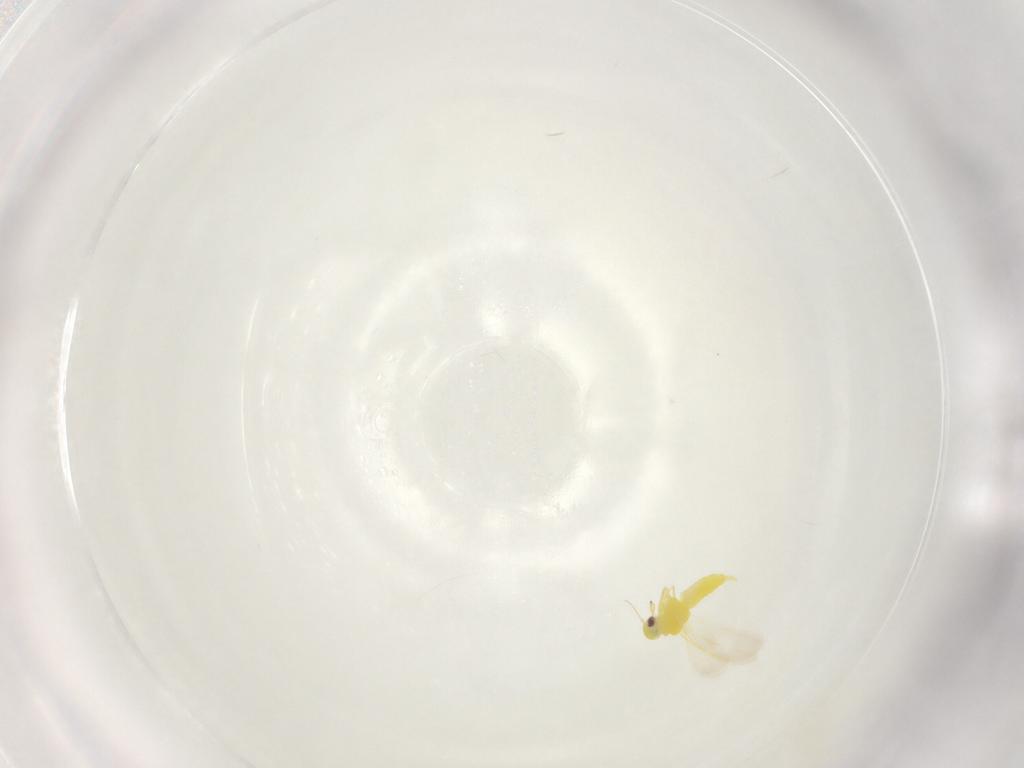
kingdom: Animalia
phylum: Arthropoda
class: Insecta
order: Hemiptera
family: Aleyrodidae
